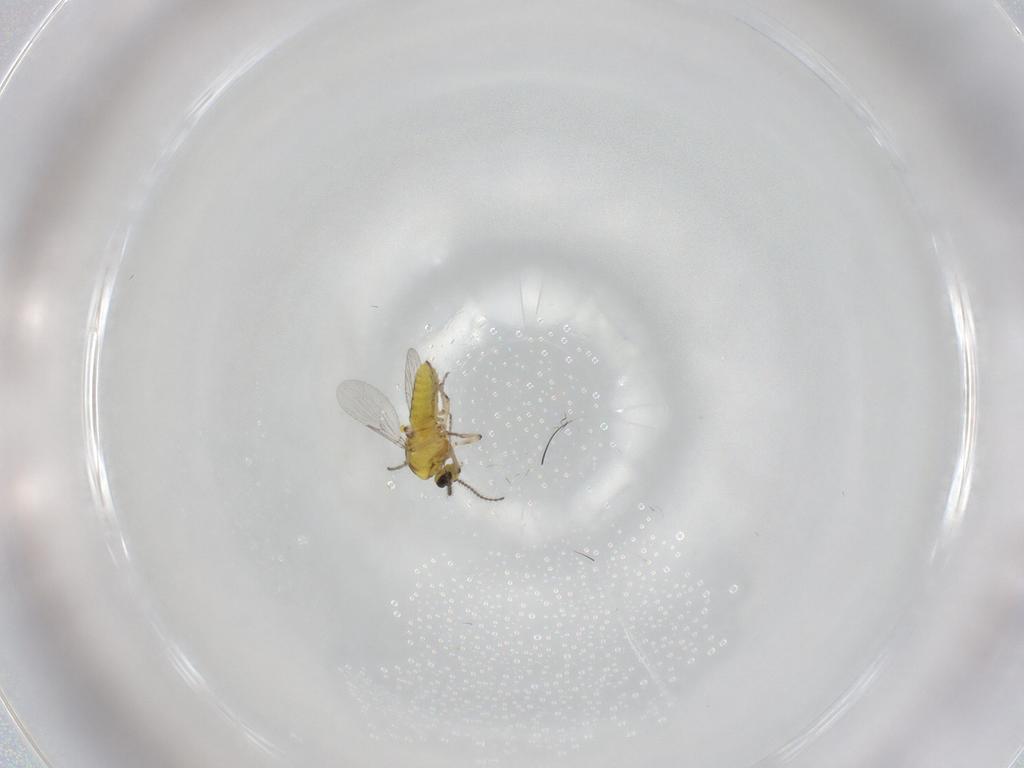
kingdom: Animalia
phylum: Arthropoda
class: Insecta
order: Diptera
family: Ceratopogonidae
